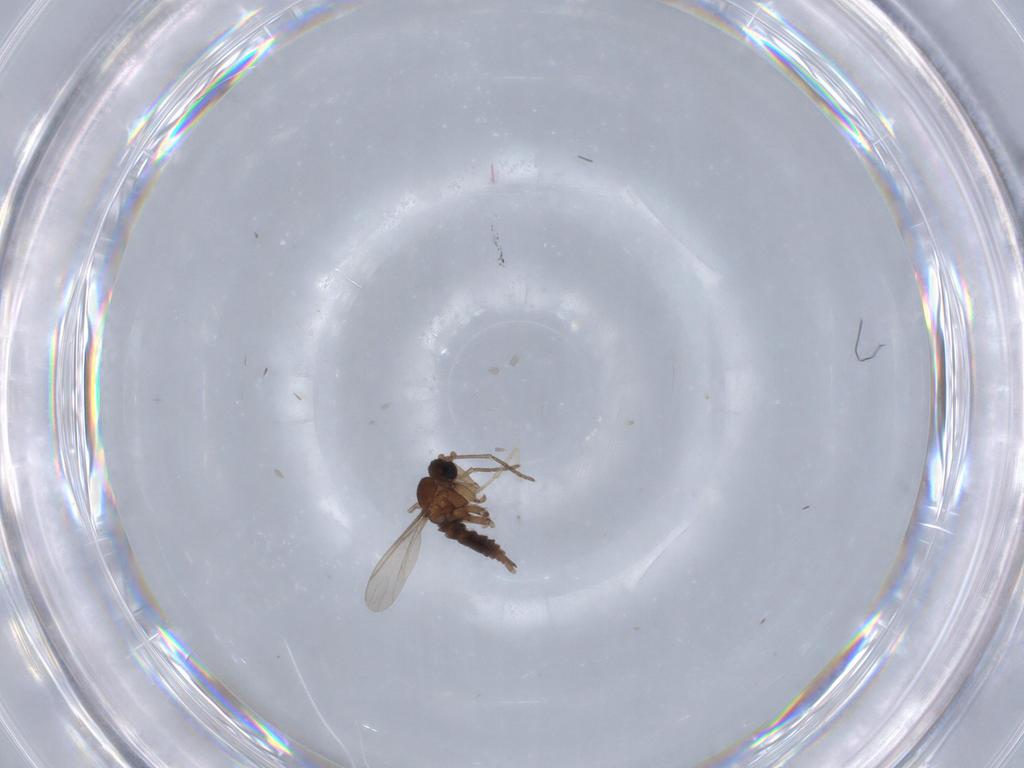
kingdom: Animalia
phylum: Arthropoda
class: Insecta
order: Diptera
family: Sciaridae
